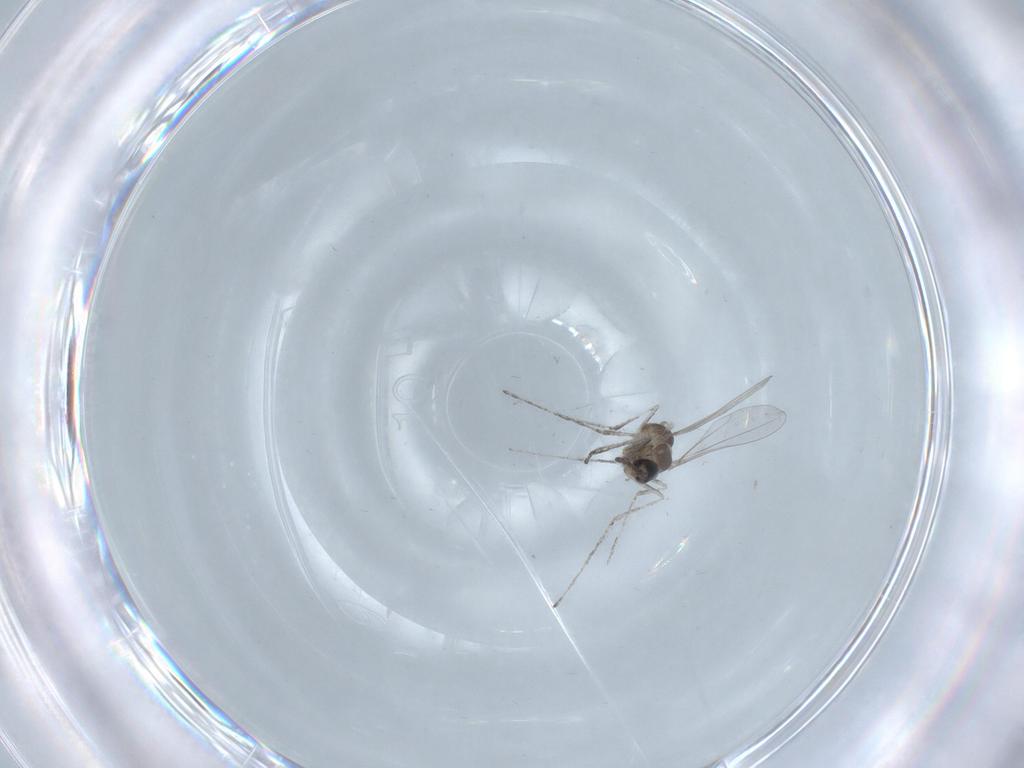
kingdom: Animalia
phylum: Arthropoda
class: Insecta
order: Diptera
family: Cecidomyiidae
